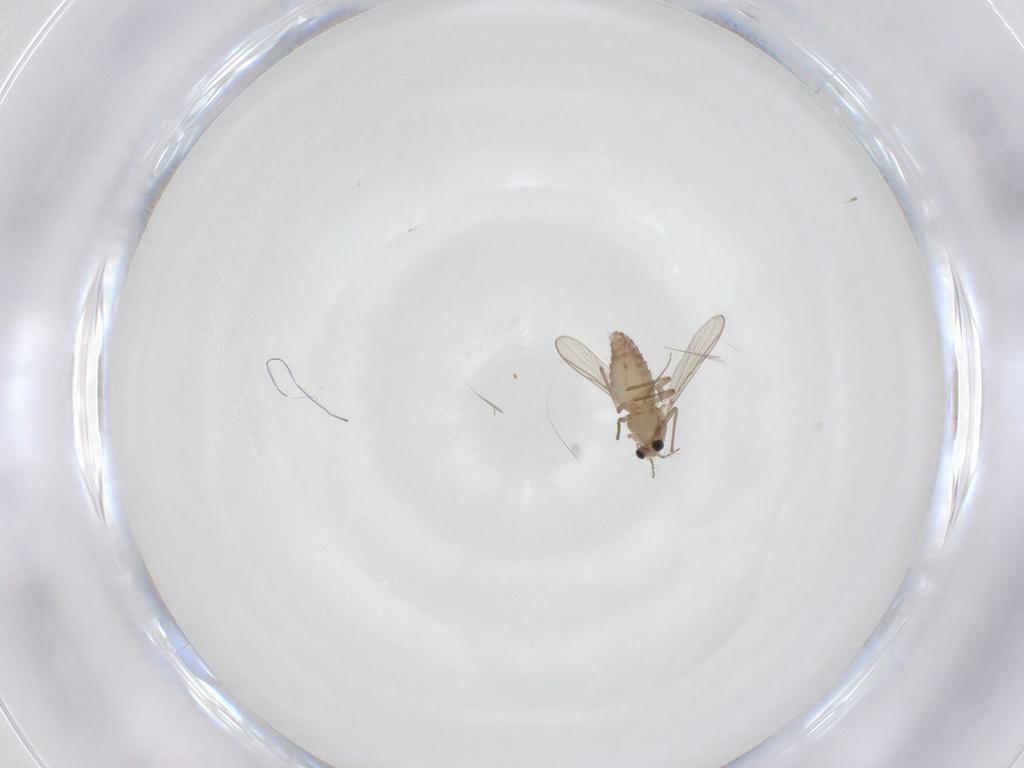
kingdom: Animalia
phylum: Arthropoda
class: Insecta
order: Diptera
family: Chironomidae
